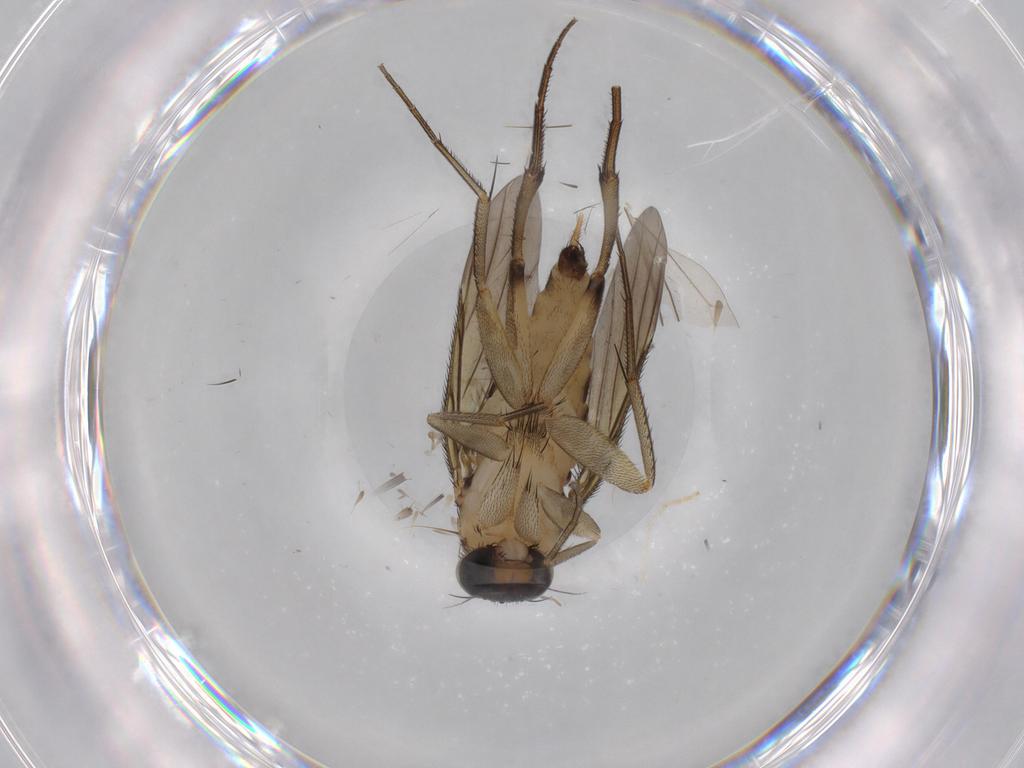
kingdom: Animalia
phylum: Arthropoda
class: Insecta
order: Diptera
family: Phoridae
